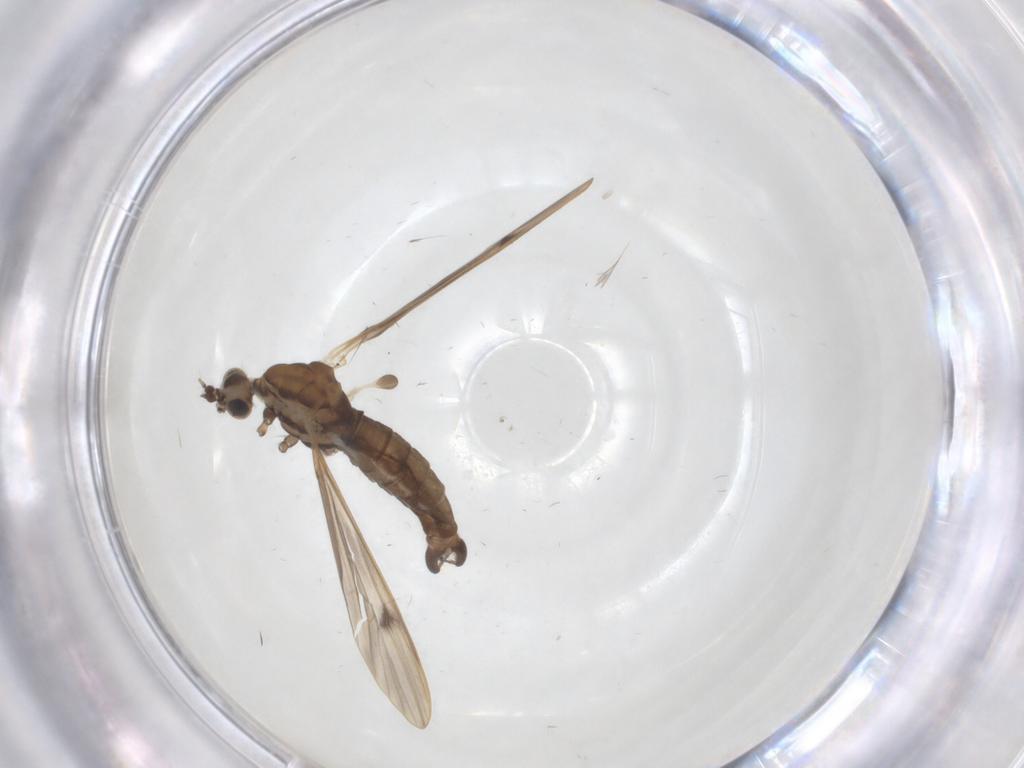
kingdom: Animalia
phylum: Arthropoda
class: Insecta
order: Diptera
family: Limoniidae
